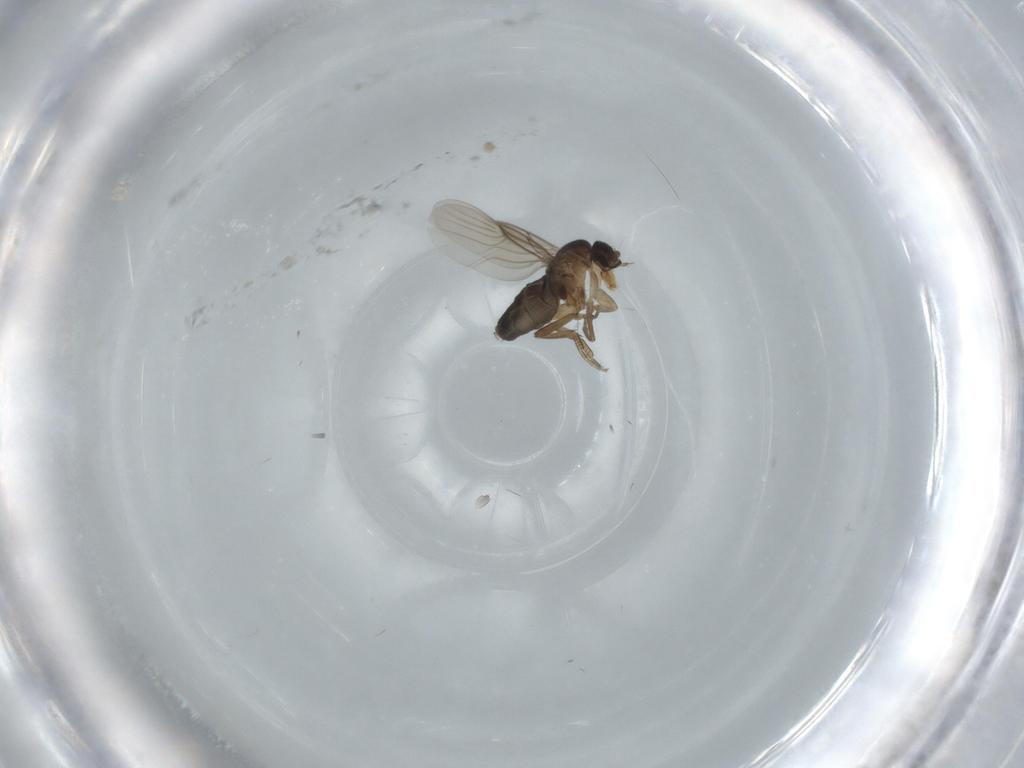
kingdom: Animalia
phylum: Arthropoda
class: Insecta
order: Diptera
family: Phoridae
